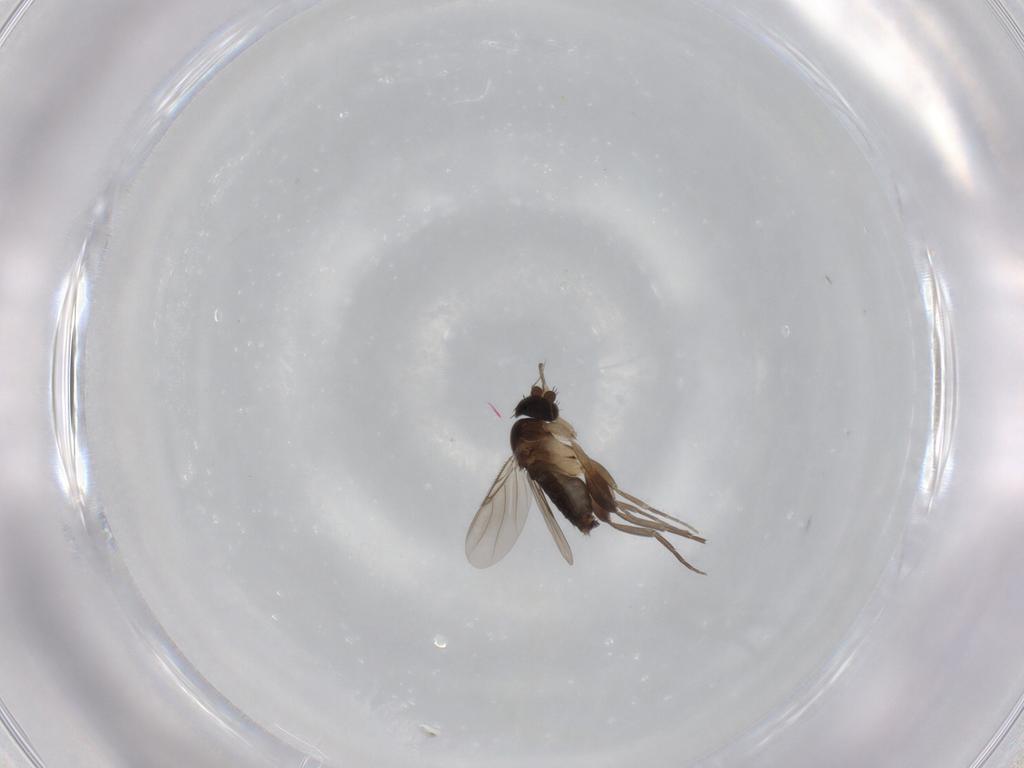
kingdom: Animalia
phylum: Arthropoda
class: Insecta
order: Diptera
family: Phoridae
